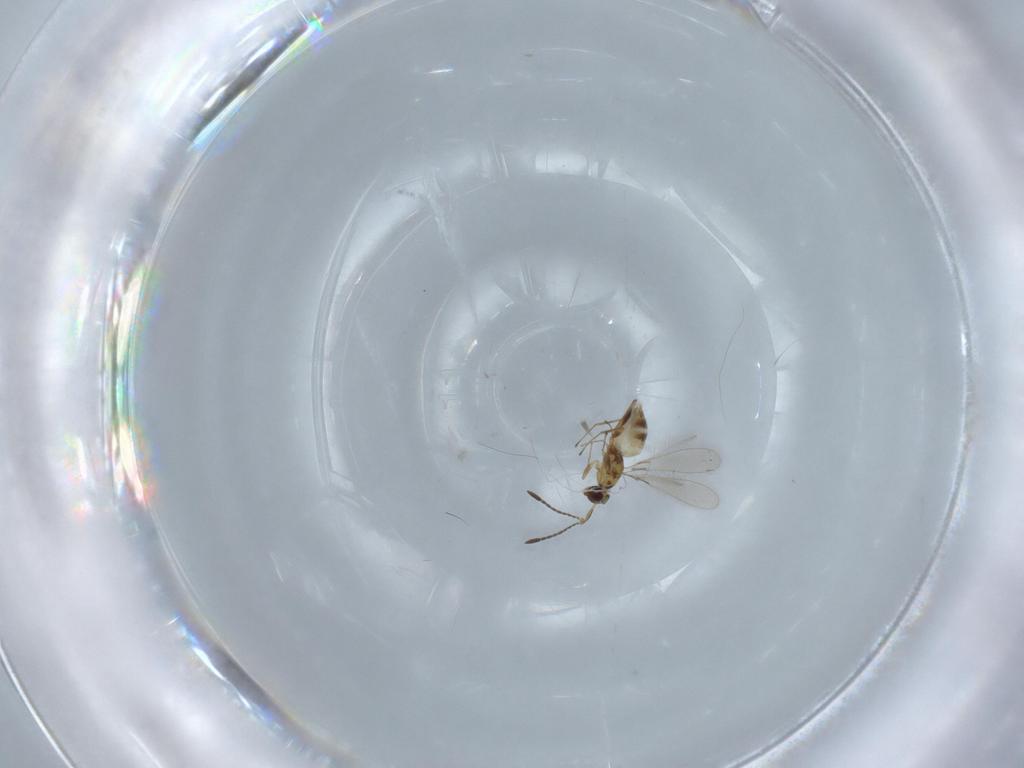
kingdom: Animalia
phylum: Arthropoda
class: Insecta
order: Hymenoptera
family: Mymaridae
